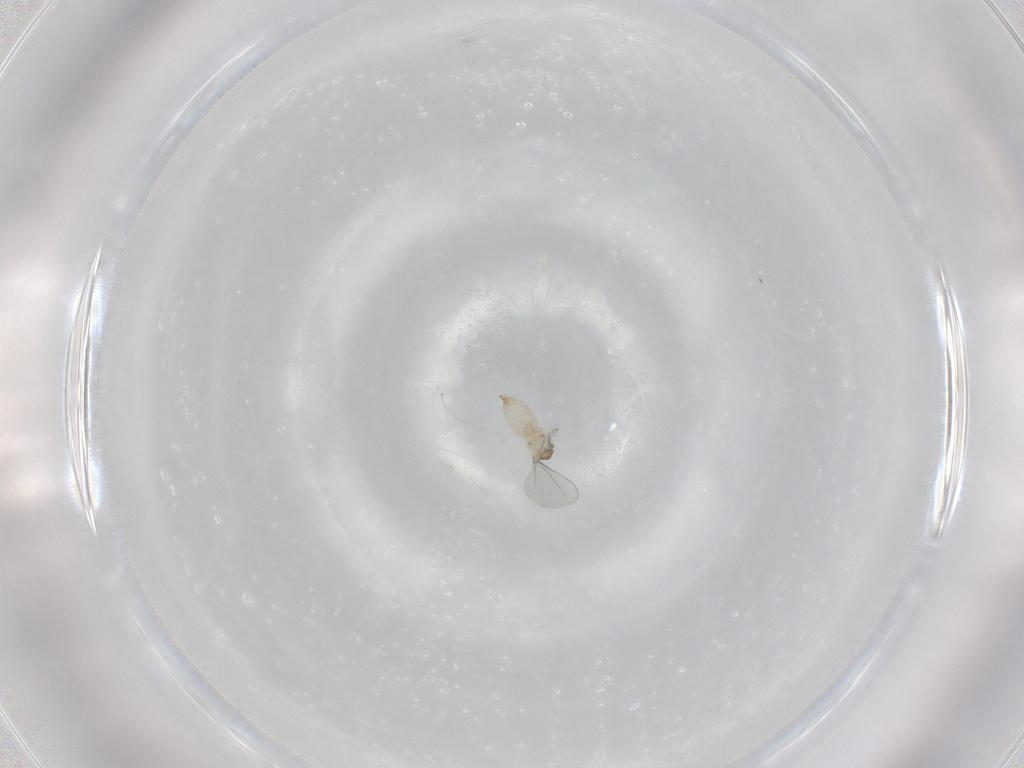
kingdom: Animalia
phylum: Arthropoda
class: Insecta
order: Diptera
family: Cecidomyiidae
